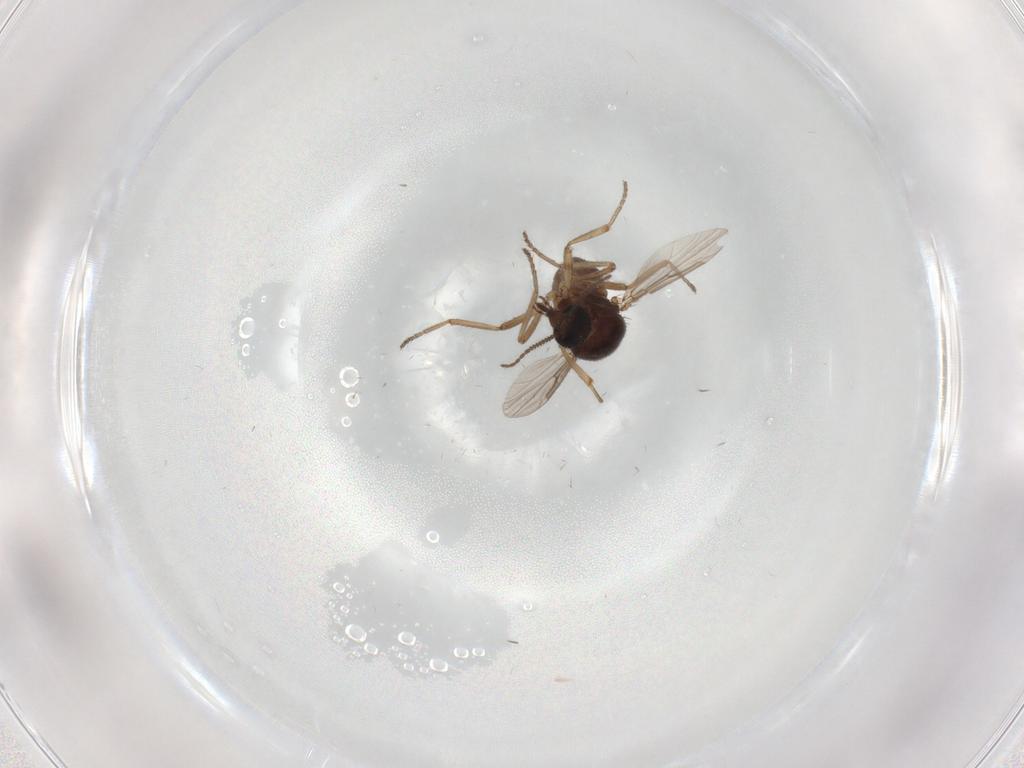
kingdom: Animalia
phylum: Arthropoda
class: Insecta
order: Diptera
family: Ceratopogonidae
